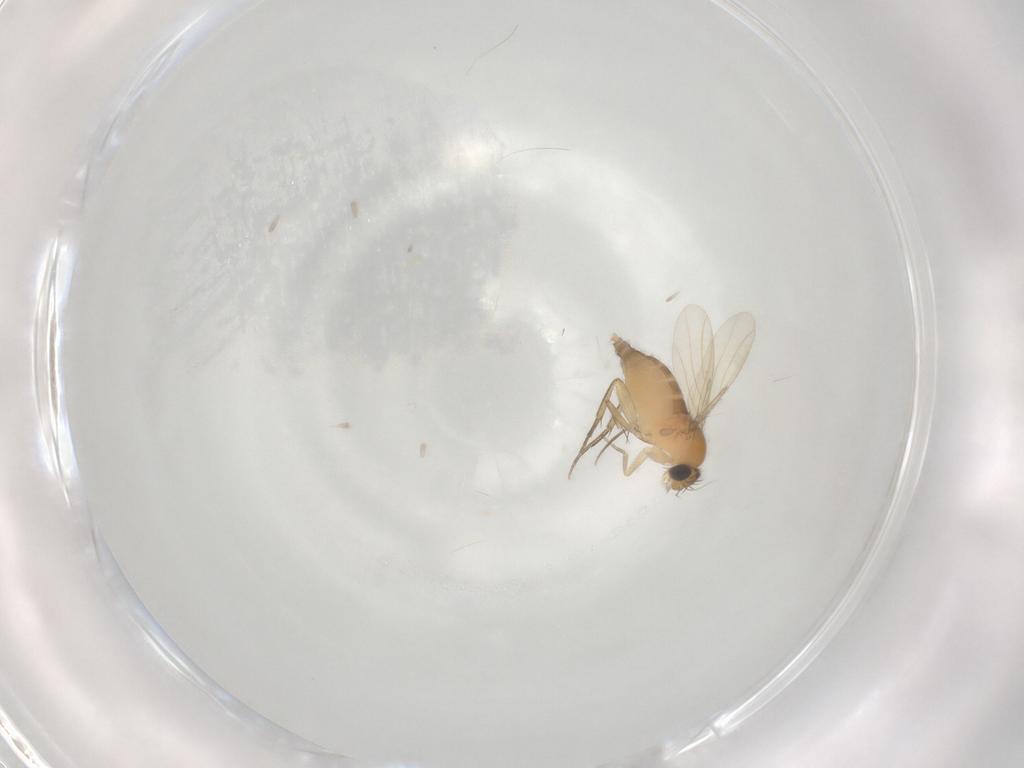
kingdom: Animalia
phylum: Arthropoda
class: Insecta
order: Diptera
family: Phoridae
